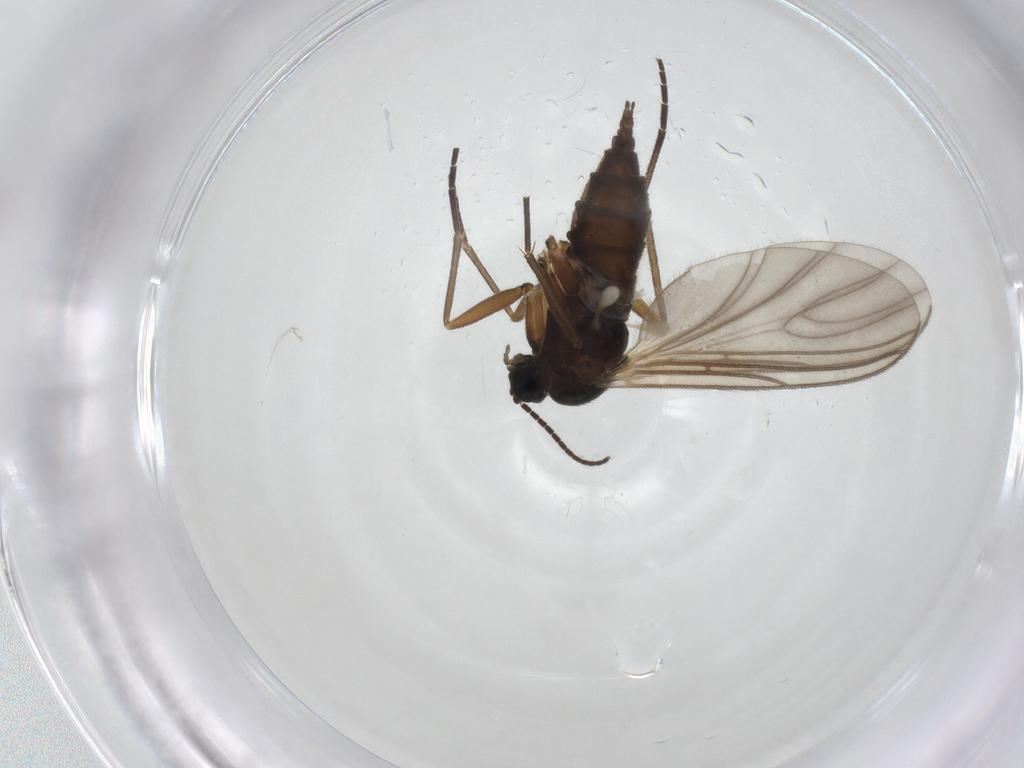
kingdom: Animalia
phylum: Arthropoda
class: Insecta
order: Diptera
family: Sciaridae
